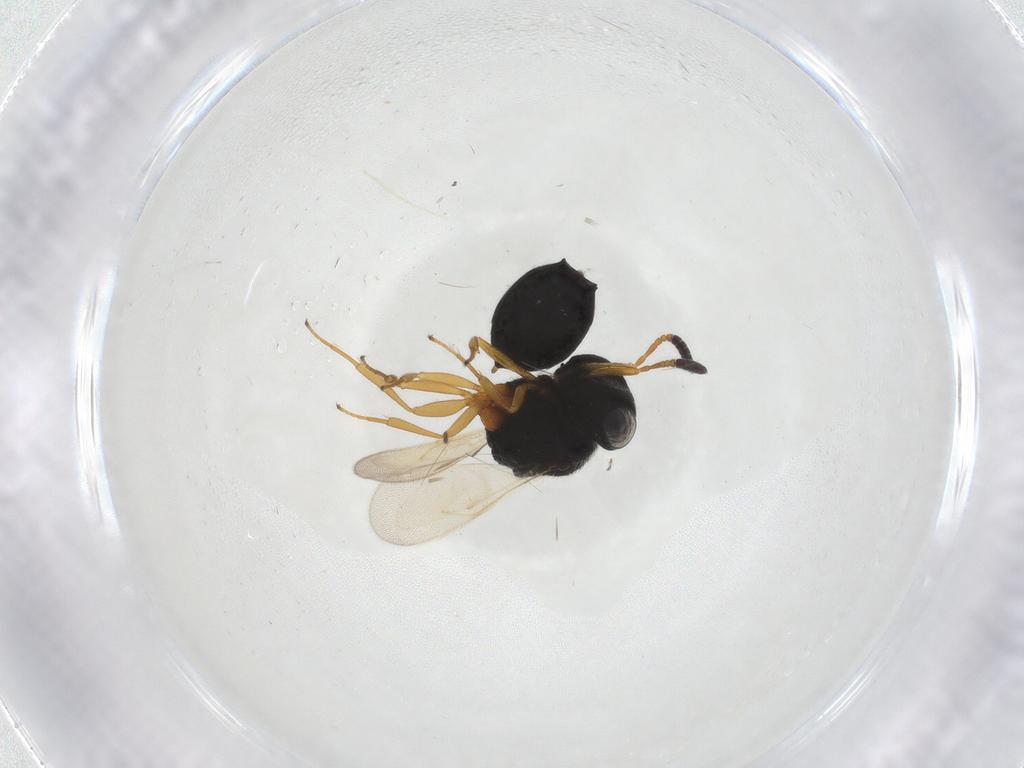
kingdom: Animalia
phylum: Arthropoda
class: Insecta
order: Hymenoptera
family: Scelionidae
